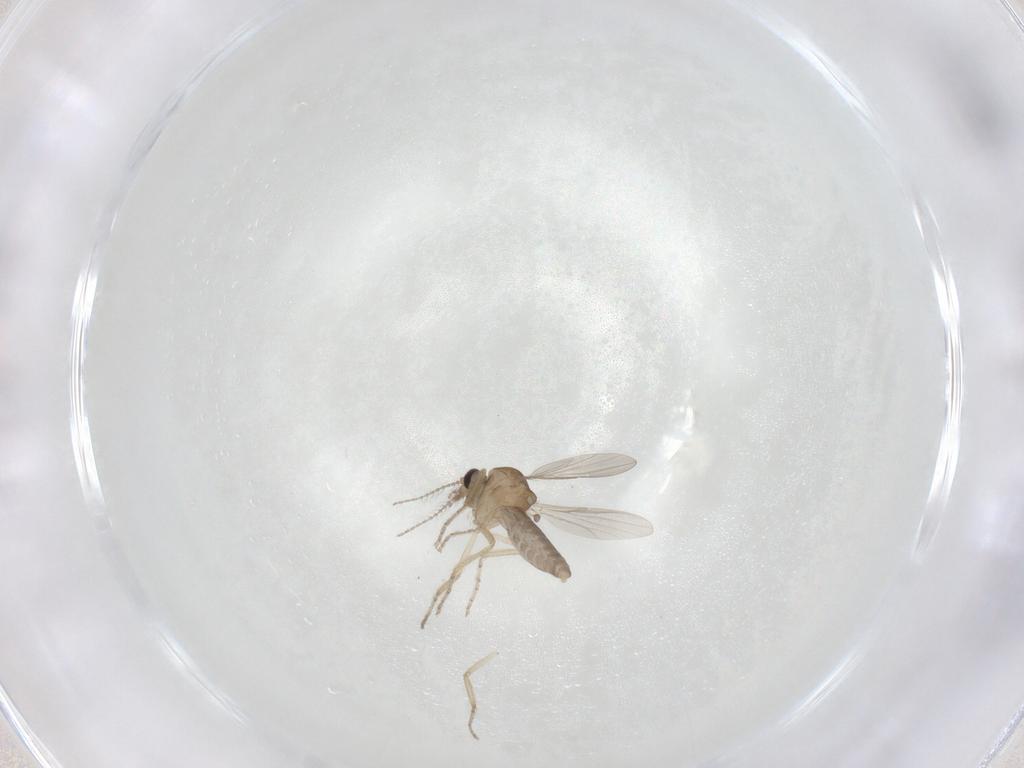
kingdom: Animalia
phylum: Arthropoda
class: Insecta
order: Diptera
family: Ceratopogonidae
